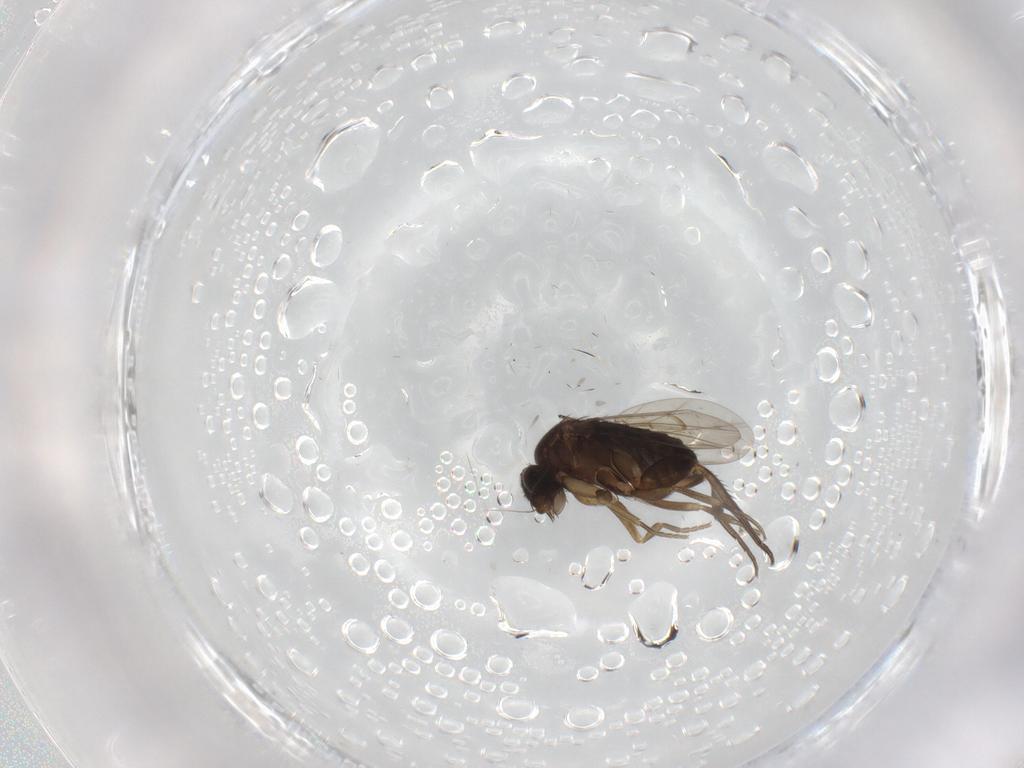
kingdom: Animalia
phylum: Arthropoda
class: Insecta
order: Diptera
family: Phoridae
